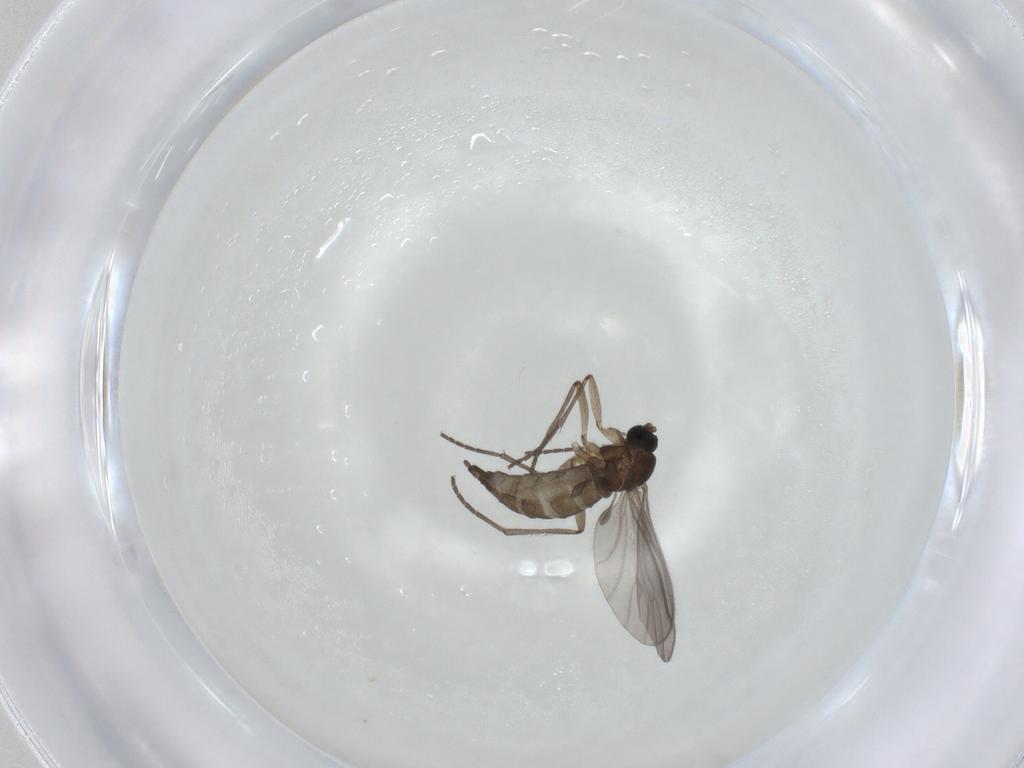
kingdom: Animalia
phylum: Arthropoda
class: Insecta
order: Diptera
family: Sciaridae
